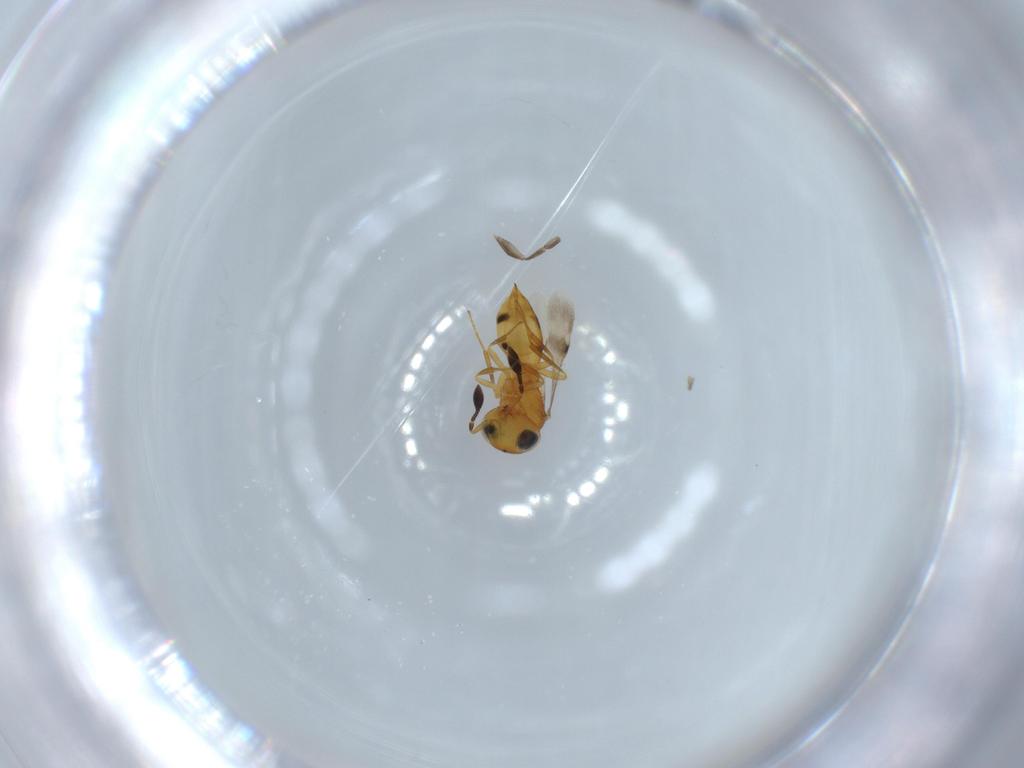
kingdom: Animalia
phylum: Arthropoda
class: Insecta
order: Hymenoptera
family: Scelionidae
